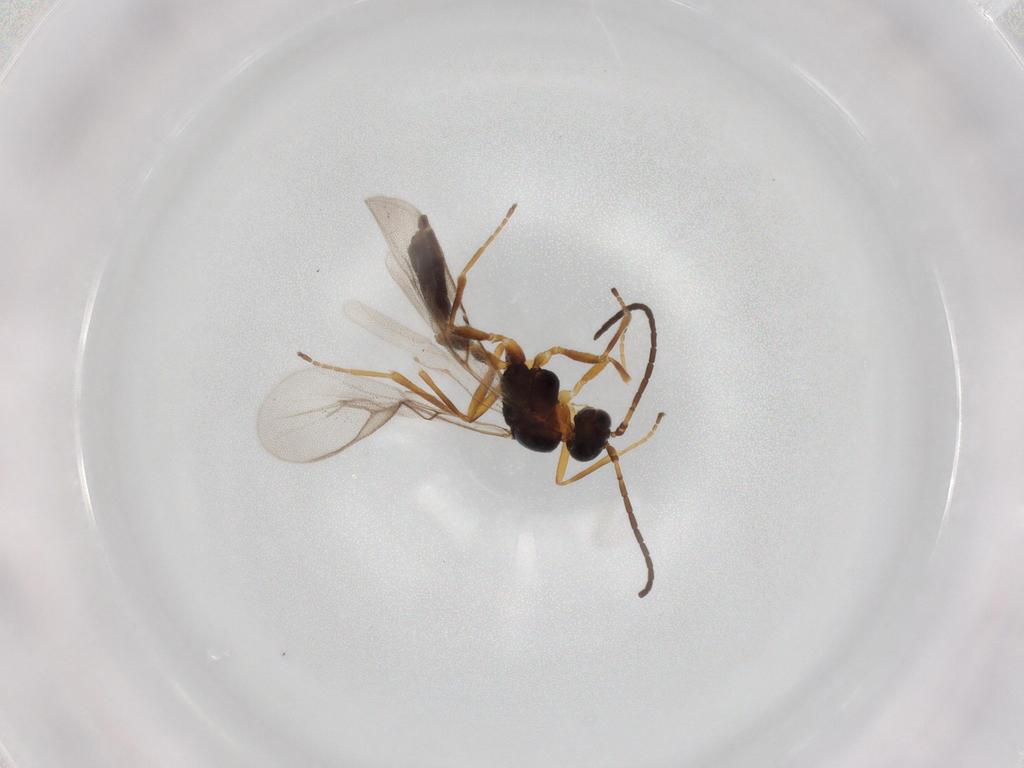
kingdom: Animalia
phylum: Arthropoda
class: Insecta
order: Hymenoptera
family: Braconidae
